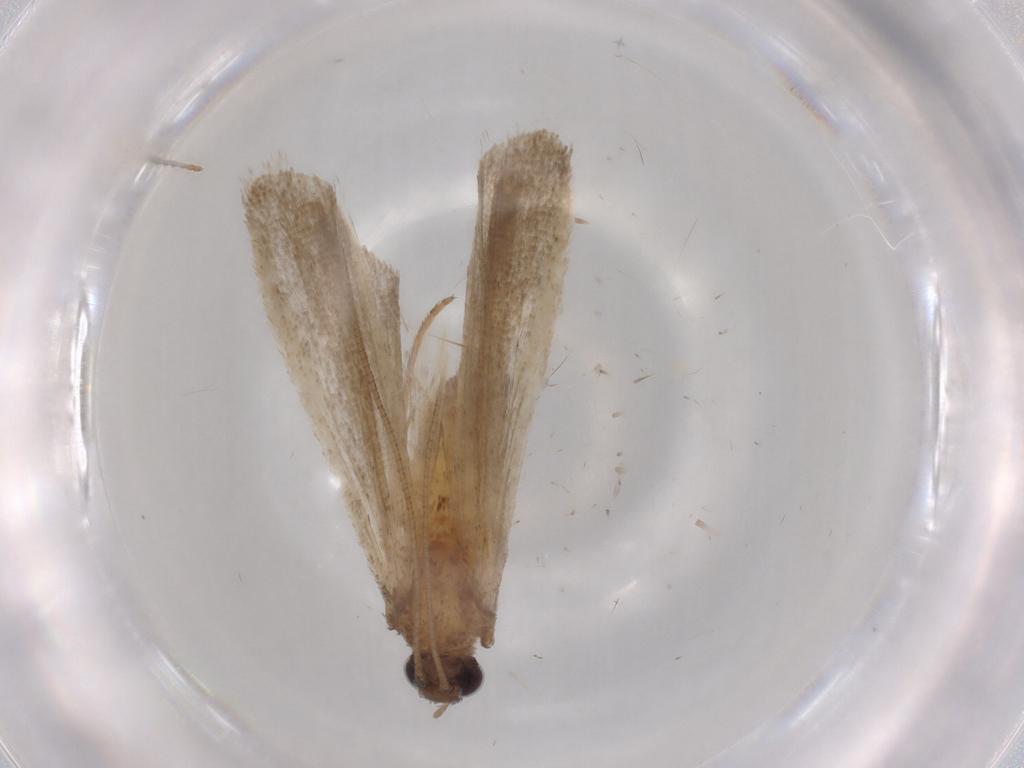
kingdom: Animalia
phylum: Arthropoda
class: Insecta
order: Lepidoptera
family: Noctuidae
